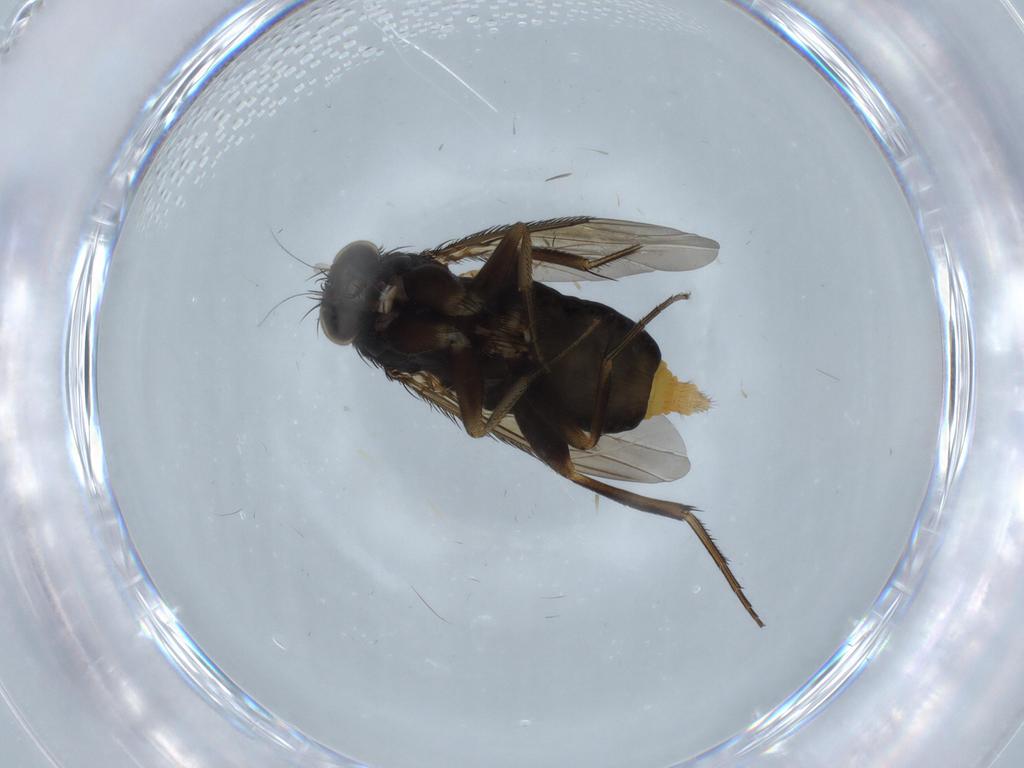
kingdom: Animalia
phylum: Arthropoda
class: Insecta
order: Diptera
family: Chironomidae
